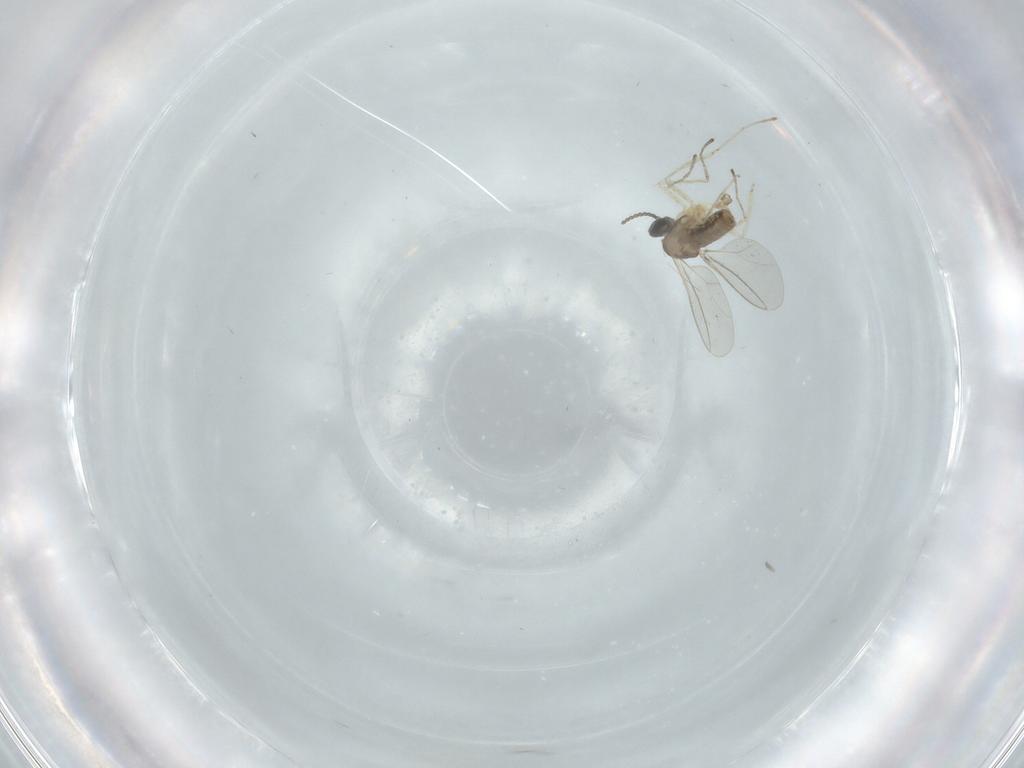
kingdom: Animalia
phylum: Arthropoda
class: Insecta
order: Diptera
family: Cecidomyiidae
